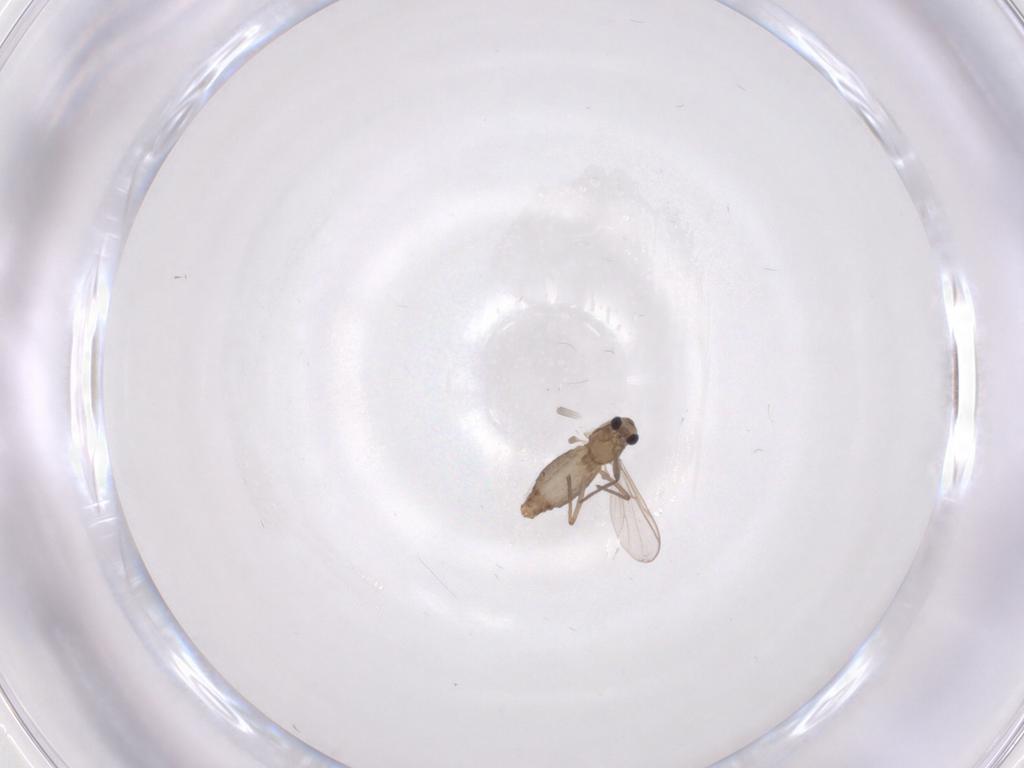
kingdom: Animalia
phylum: Arthropoda
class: Insecta
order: Diptera
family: Chironomidae
